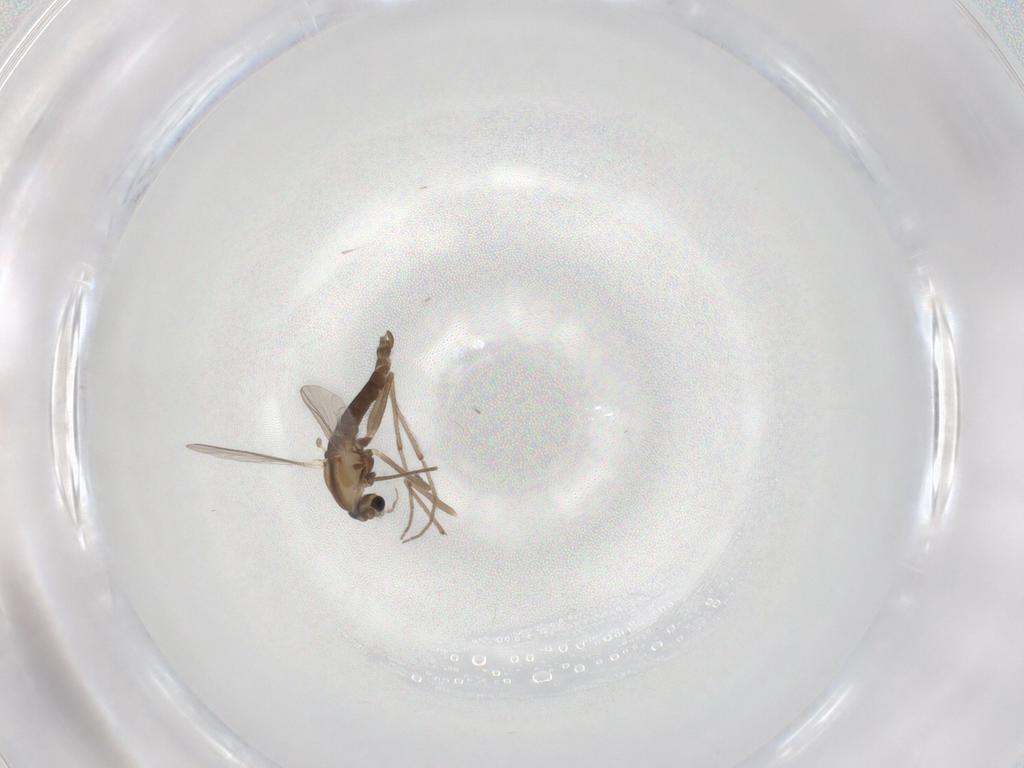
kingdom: Animalia
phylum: Arthropoda
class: Insecta
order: Diptera
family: Chironomidae
